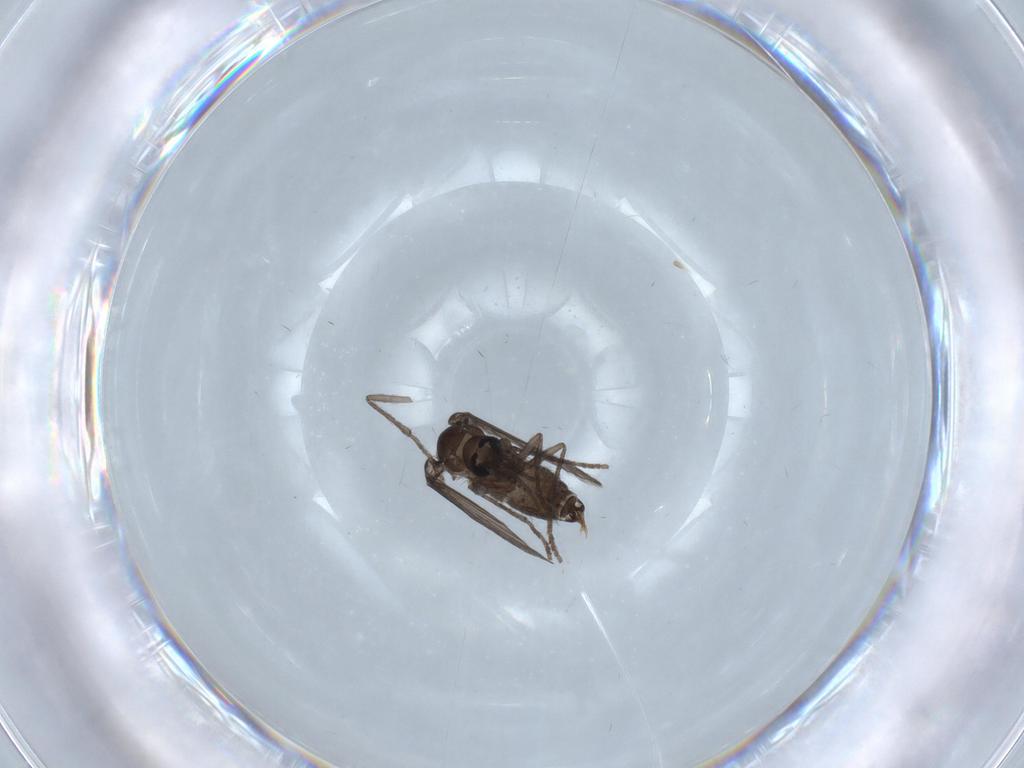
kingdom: Animalia
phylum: Arthropoda
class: Insecta
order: Diptera
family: Psychodidae
